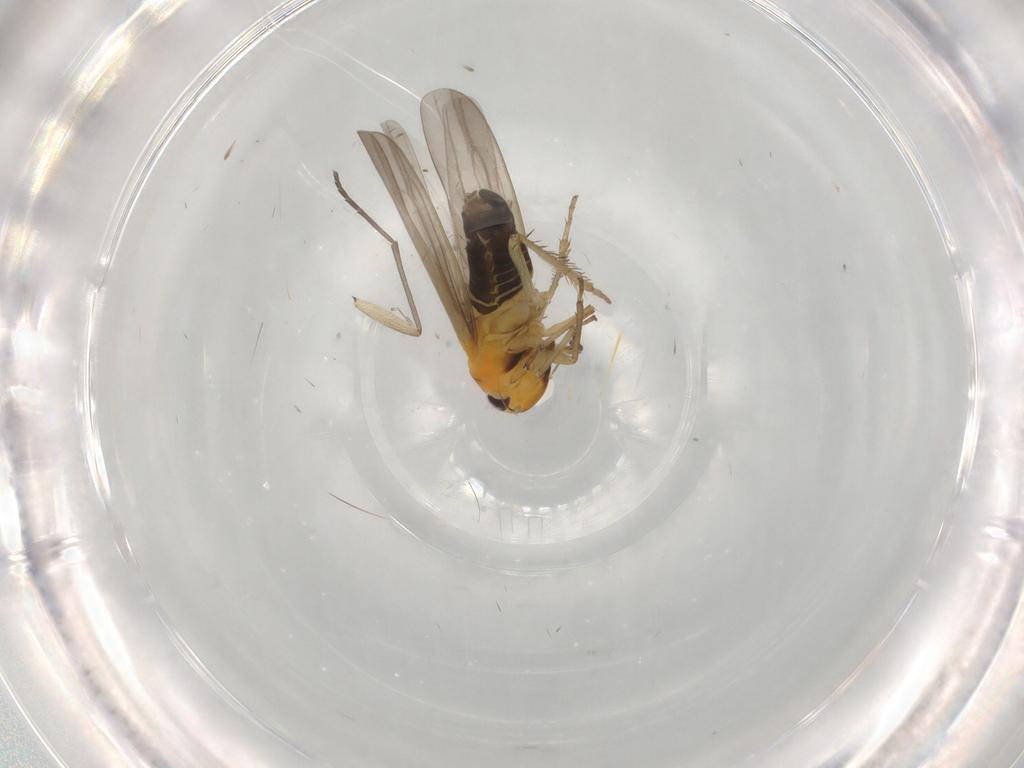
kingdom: Animalia
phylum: Arthropoda
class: Insecta
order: Hemiptera
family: Cicadellidae
